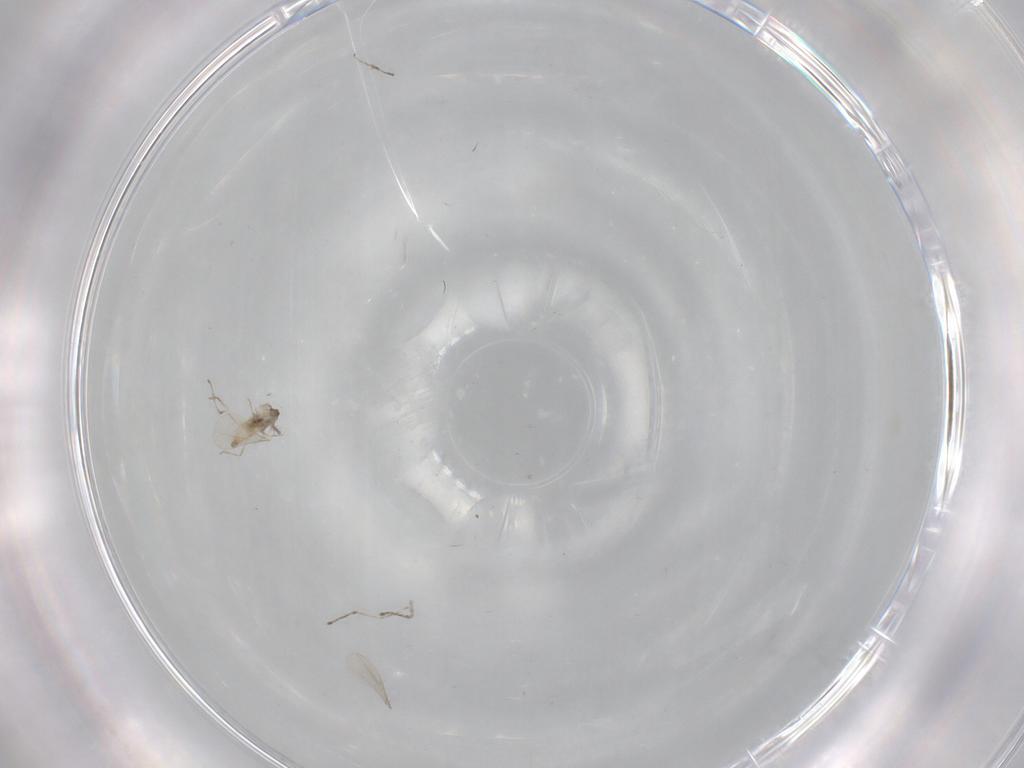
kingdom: Animalia
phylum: Arthropoda
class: Insecta
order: Diptera
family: Cecidomyiidae
